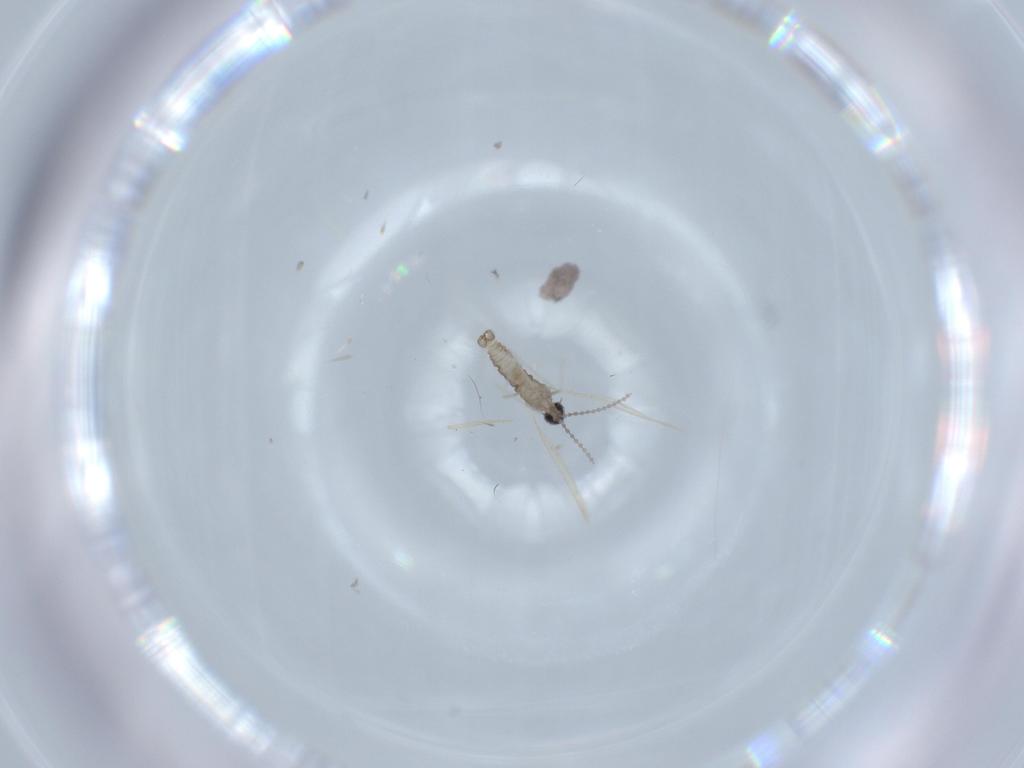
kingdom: Animalia
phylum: Arthropoda
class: Insecta
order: Diptera
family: Cecidomyiidae
